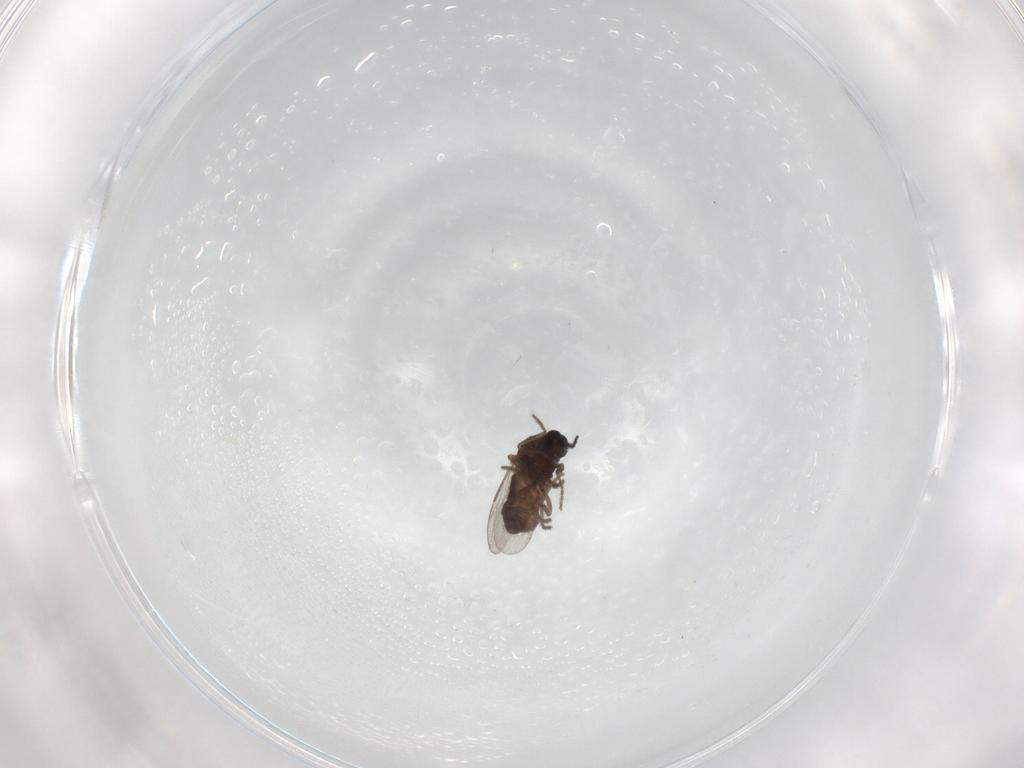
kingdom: Animalia
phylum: Arthropoda
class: Insecta
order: Diptera
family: Ceratopogonidae
